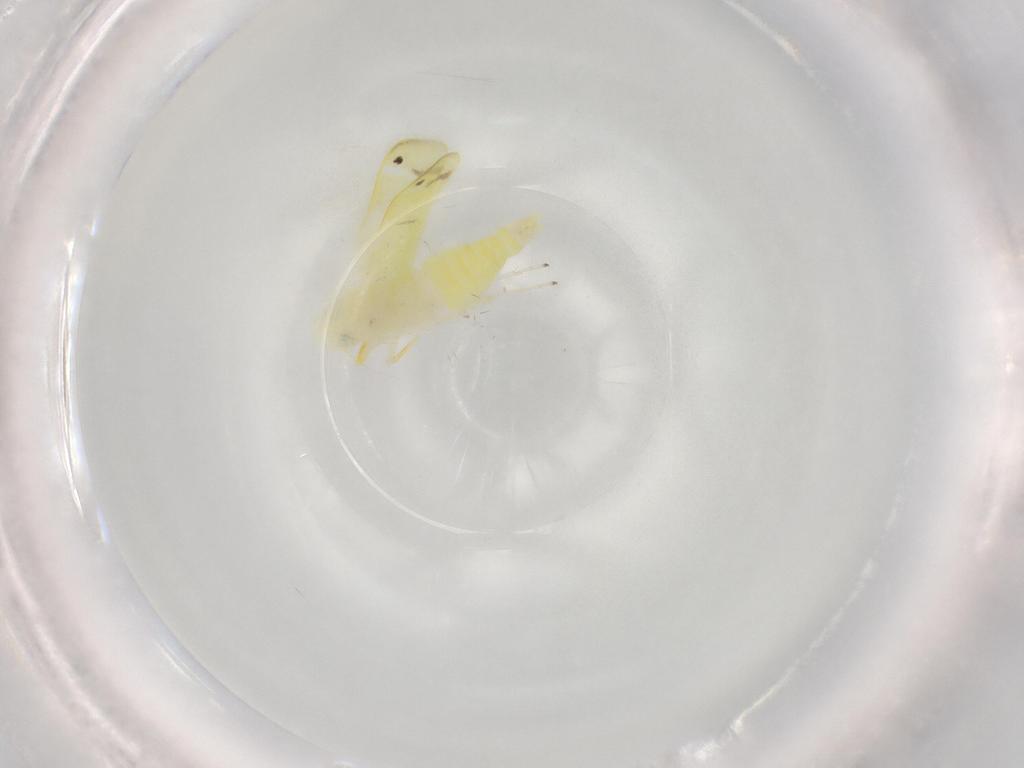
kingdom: Animalia
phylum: Arthropoda
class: Insecta
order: Hemiptera
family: Cicadellidae
